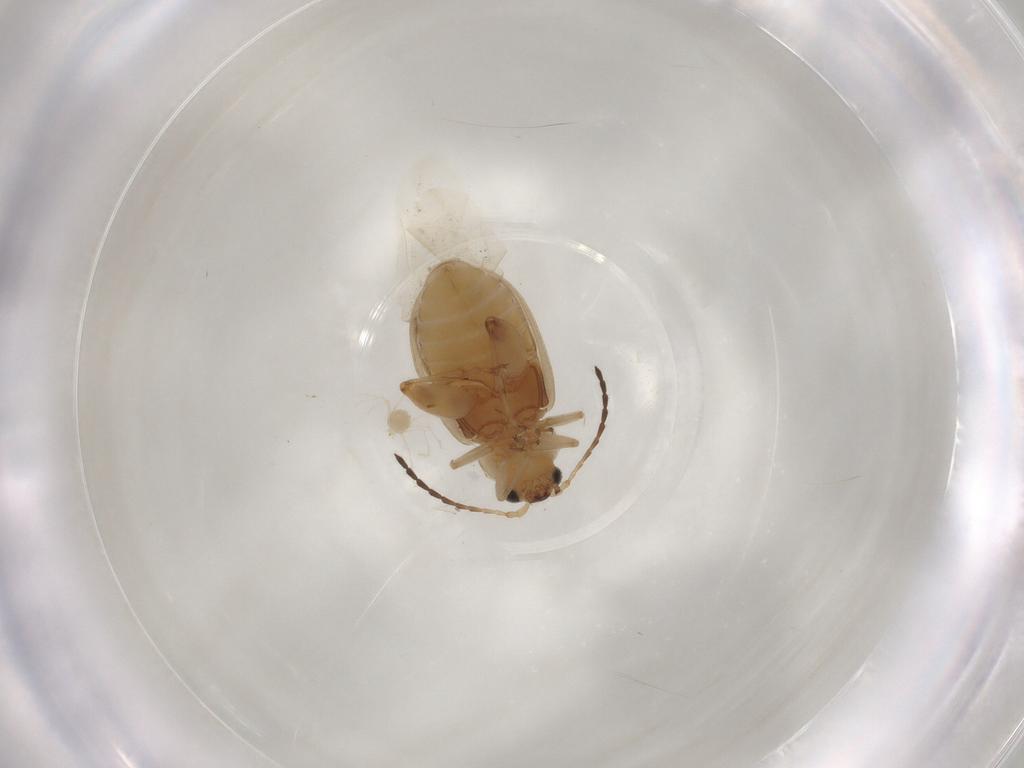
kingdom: Animalia
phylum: Arthropoda
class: Insecta
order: Coleoptera
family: Chrysomelidae
